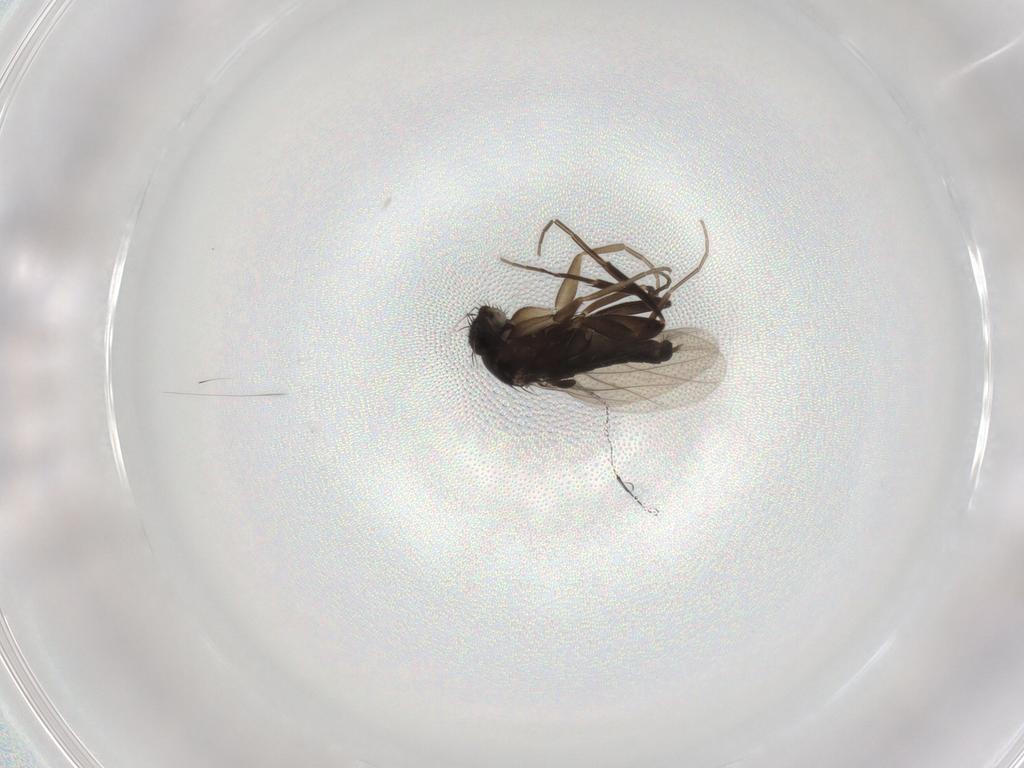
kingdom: Animalia
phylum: Arthropoda
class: Insecta
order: Diptera
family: Phoridae
